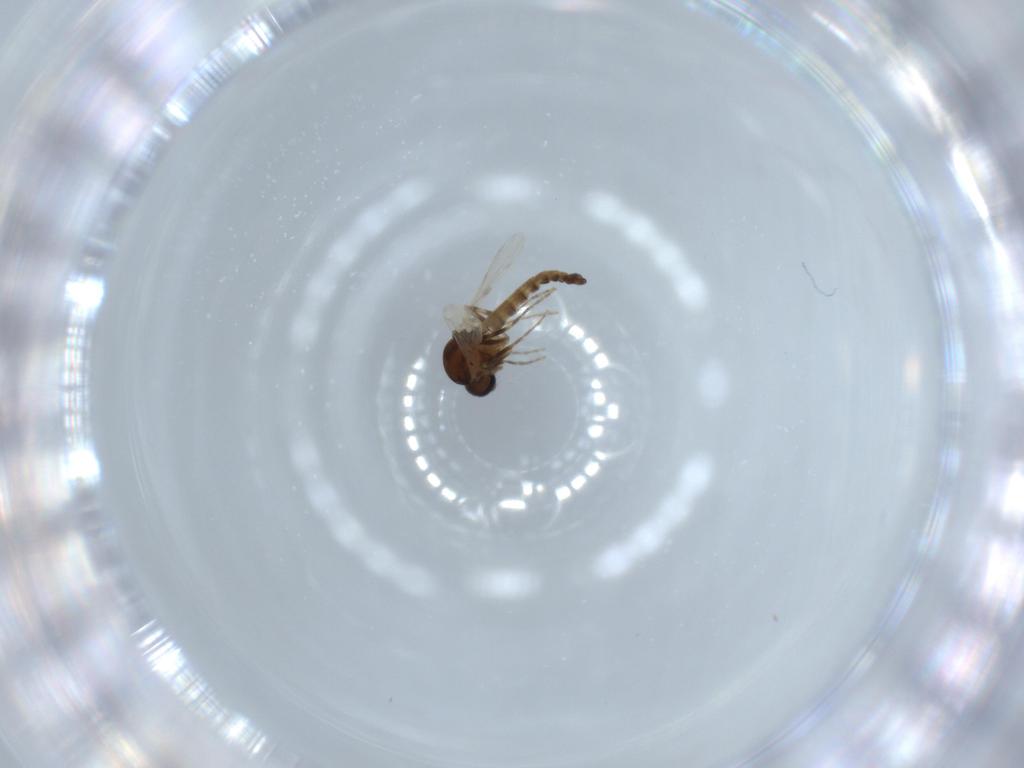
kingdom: Animalia
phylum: Arthropoda
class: Insecta
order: Diptera
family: Ceratopogonidae
